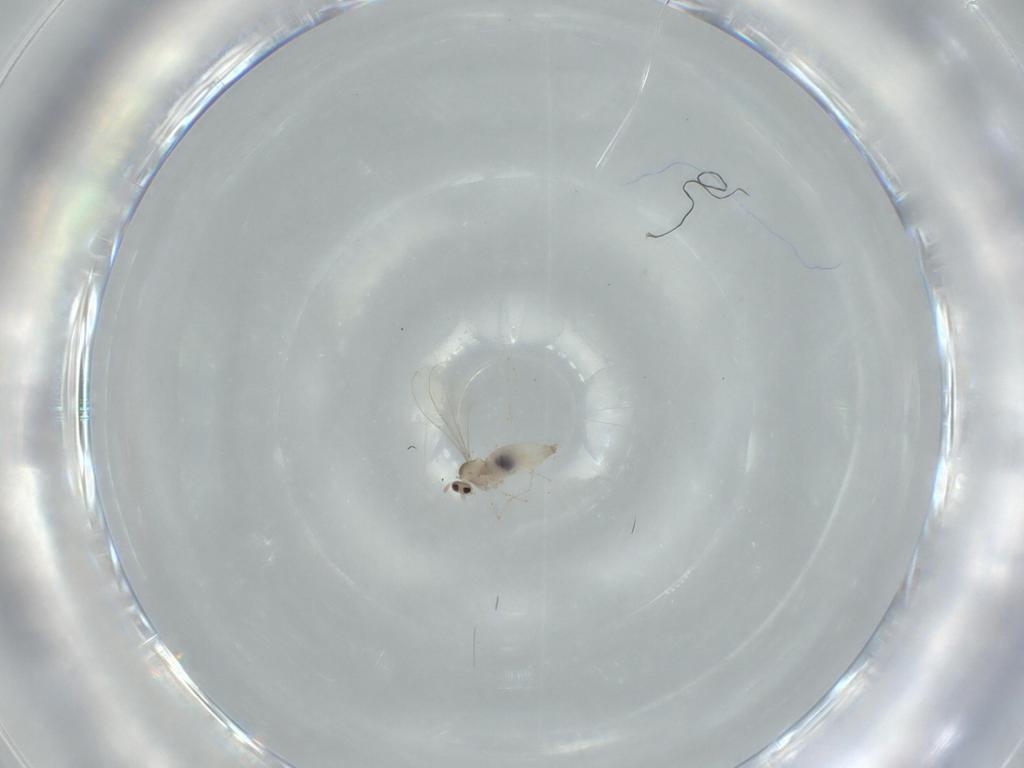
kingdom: Animalia
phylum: Arthropoda
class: Insecta
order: Diptera
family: Cecidomyiidae
